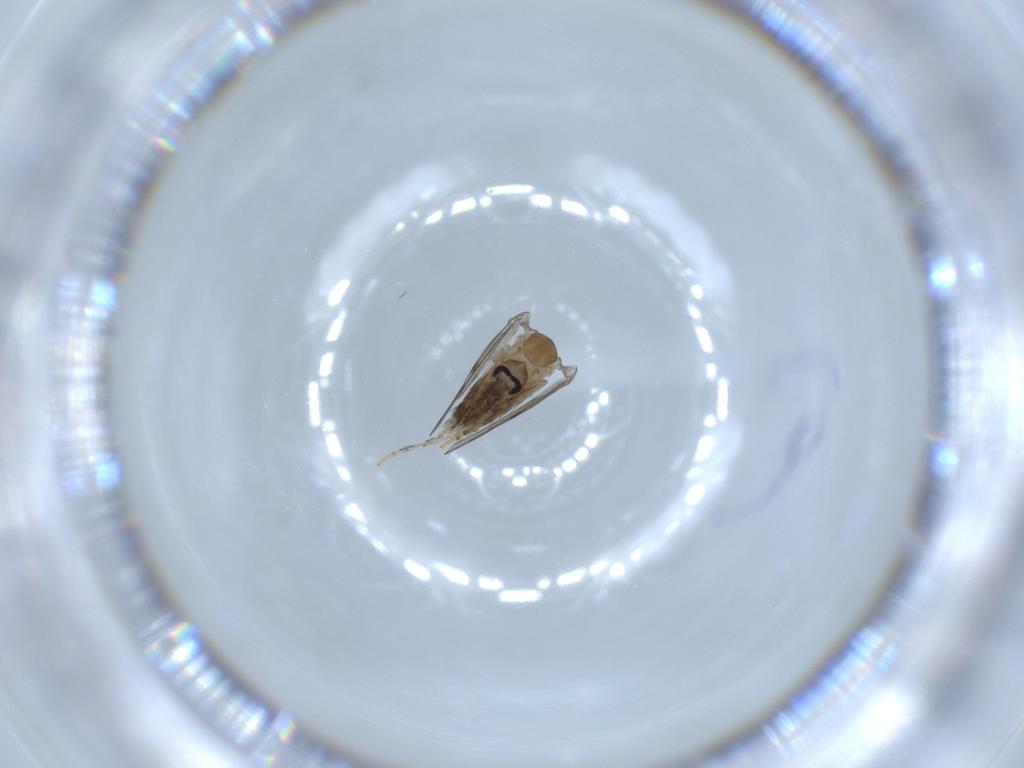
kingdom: Animalia
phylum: Arthropoda
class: Insecta
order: Diptera
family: Psychodidae
